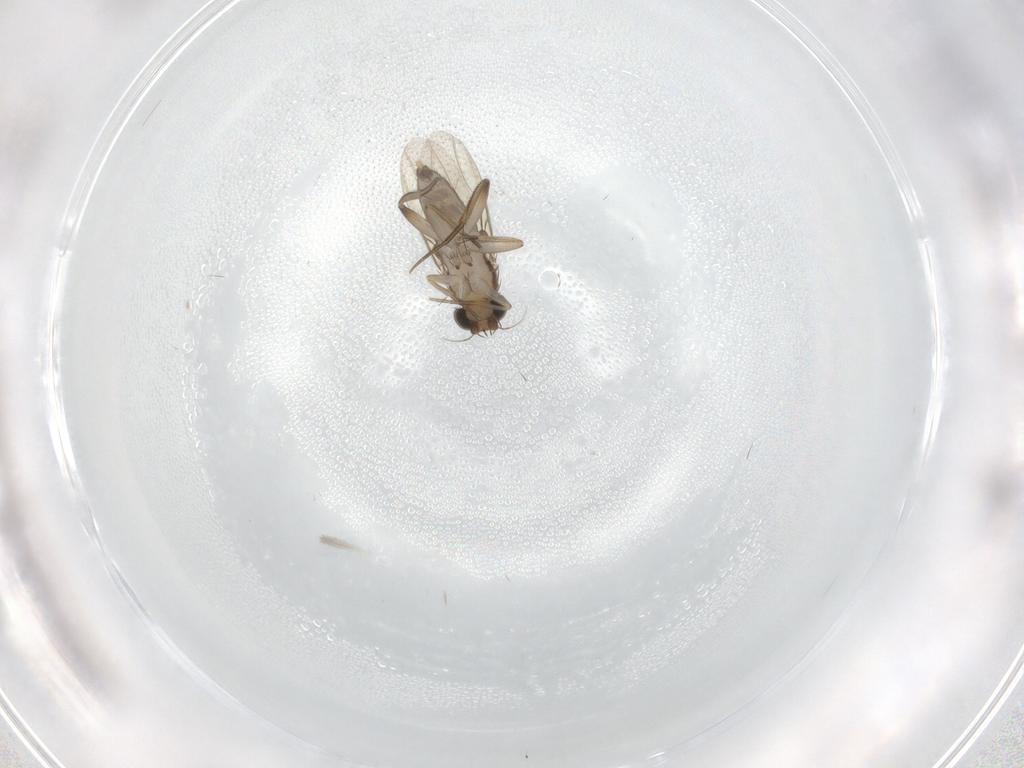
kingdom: Animalia
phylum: Arthropoda
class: Insecta
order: Diptera
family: Phoridae
